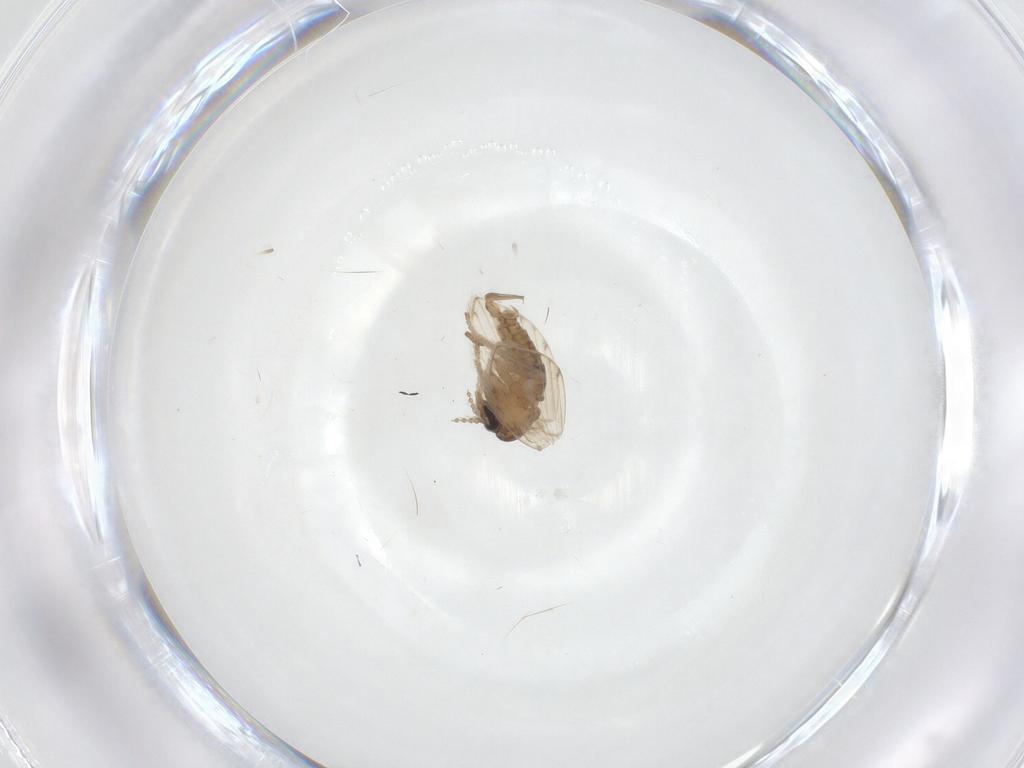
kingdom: Animalia
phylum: Arthropoda
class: Insecta
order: Diptera
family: Psychodidae
